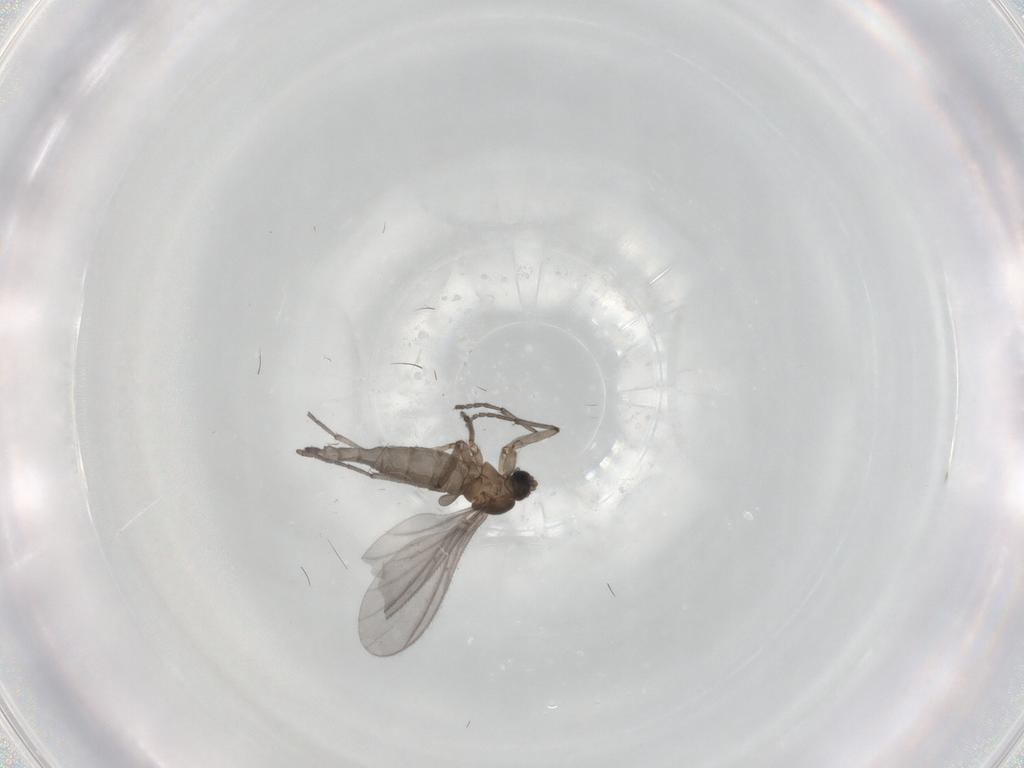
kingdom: Animalia
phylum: Arthropoda
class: Insecta
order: Diptera
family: Sciaridae
